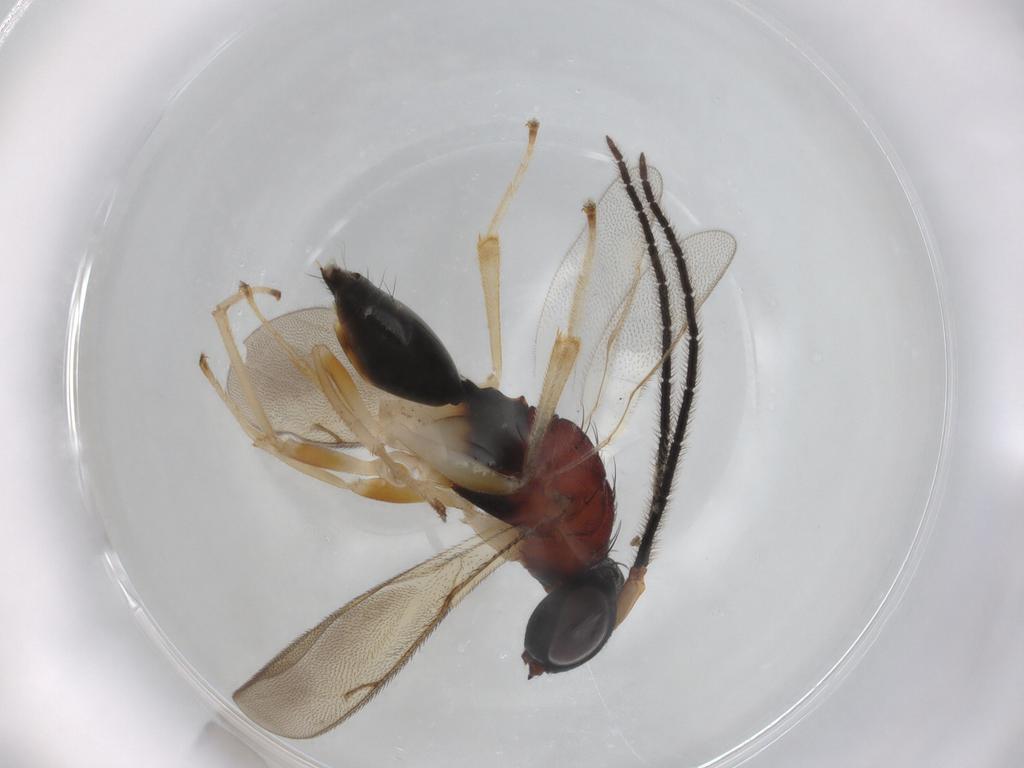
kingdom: Animalia
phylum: Arthropoda
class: Insecta
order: Hymenoptera
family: Diparidae
